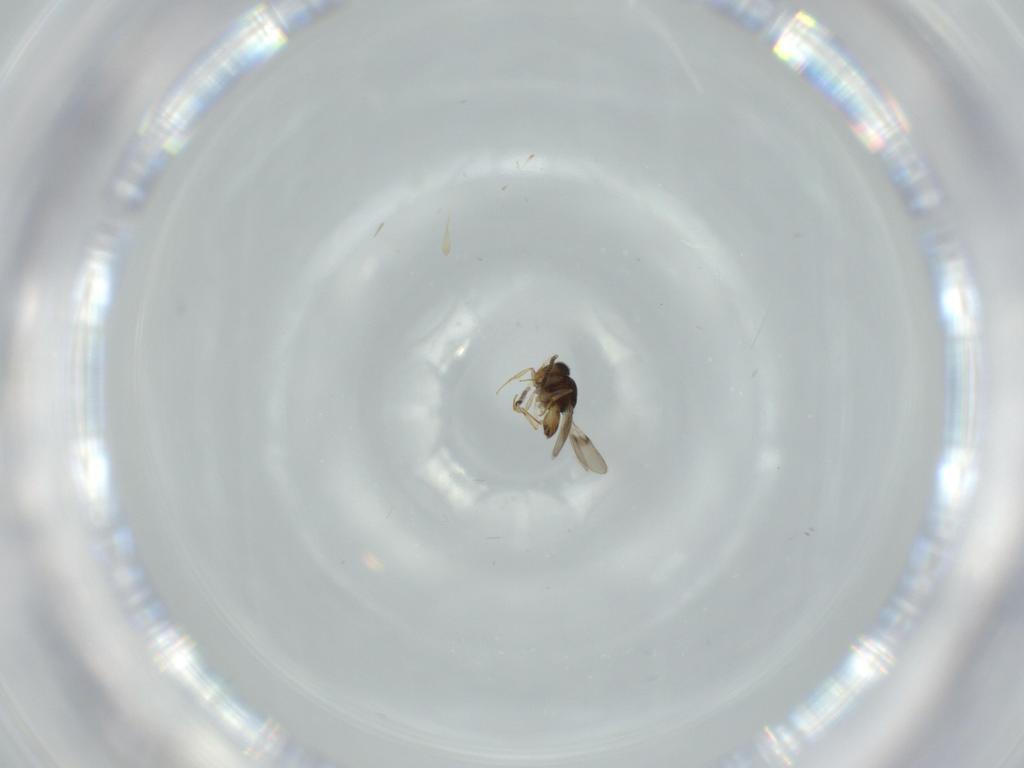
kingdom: Animalia
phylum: Arthropoda
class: Insecta
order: Hymenoptera
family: Scelionidae
